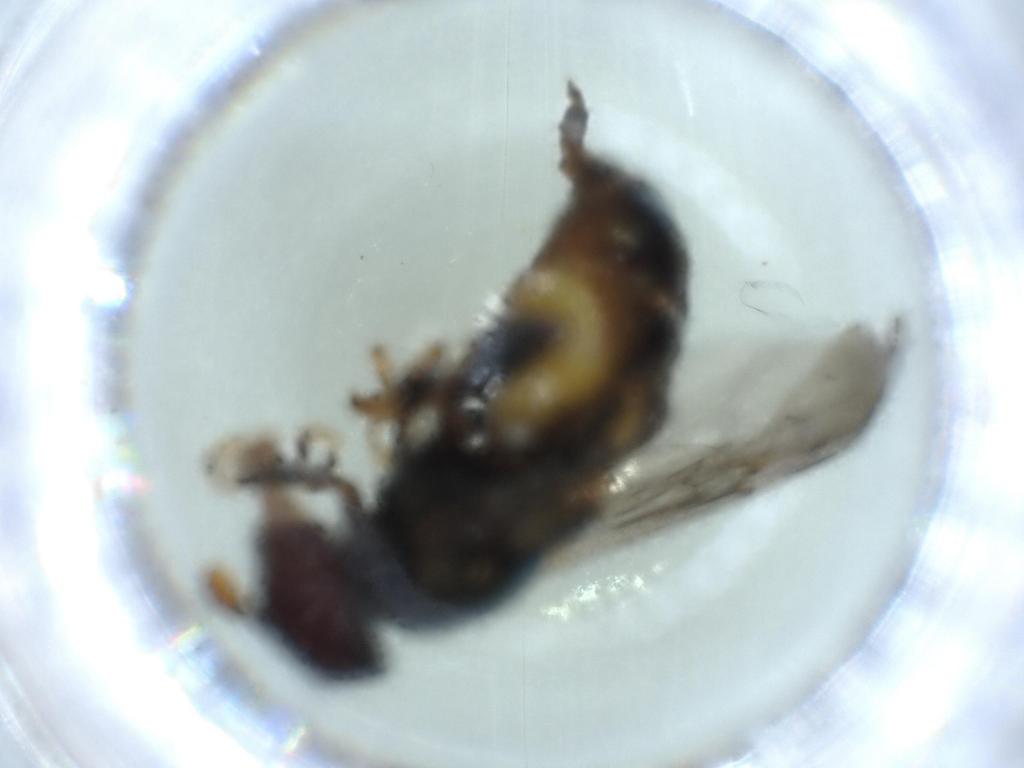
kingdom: Animalia
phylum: Arthropoda
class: Insecta
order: Diptera
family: Syrphidae
